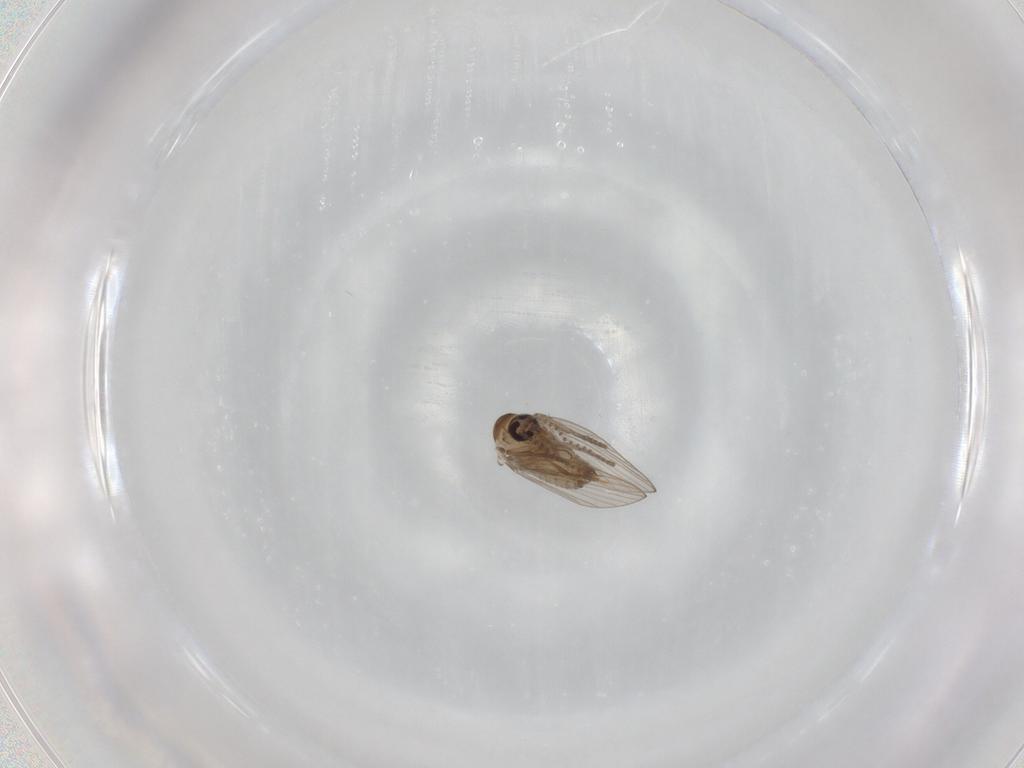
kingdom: Animalia
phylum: Arthropoda
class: Insecta
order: Diptera
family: Psychodidae
